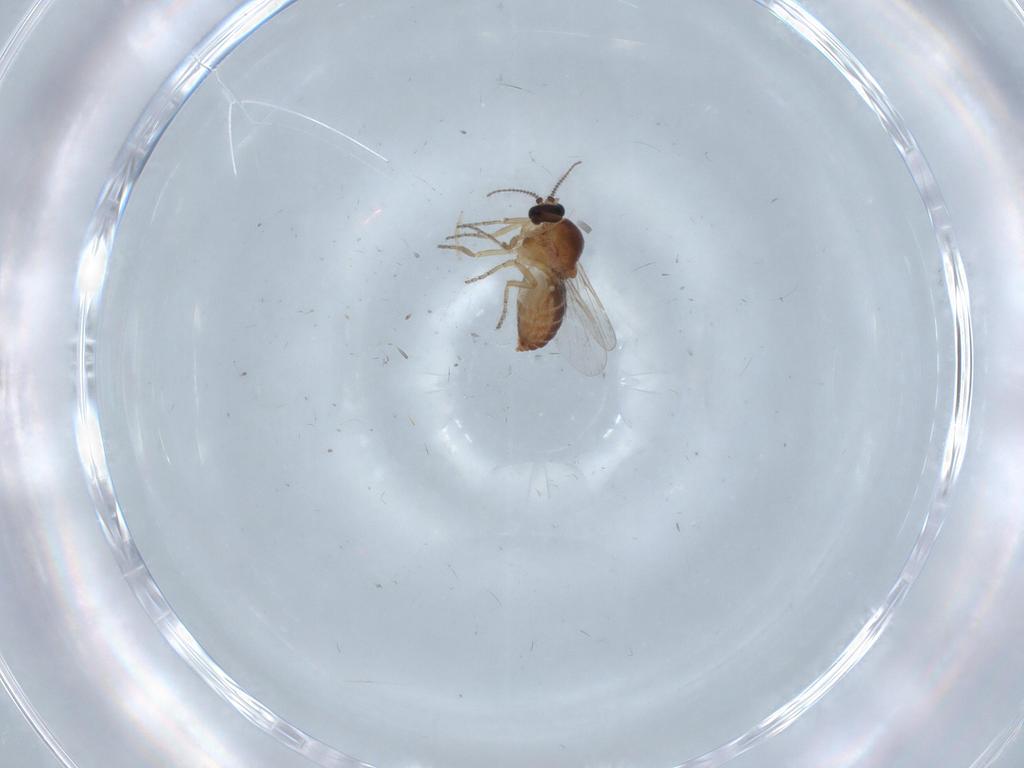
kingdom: Animalia
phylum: Arthropoda
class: Insecta
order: Diptera
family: Ceratopogonidae
